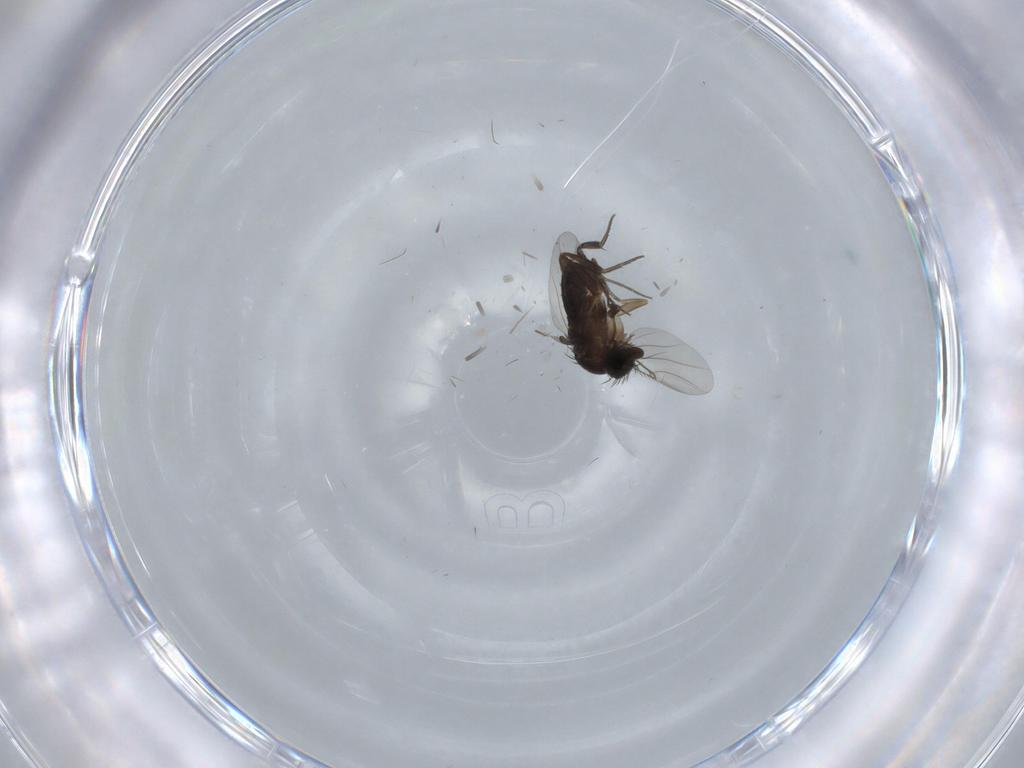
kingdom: Animalia
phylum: Arthropoda
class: Insecta
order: Diptera
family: Phoridae
